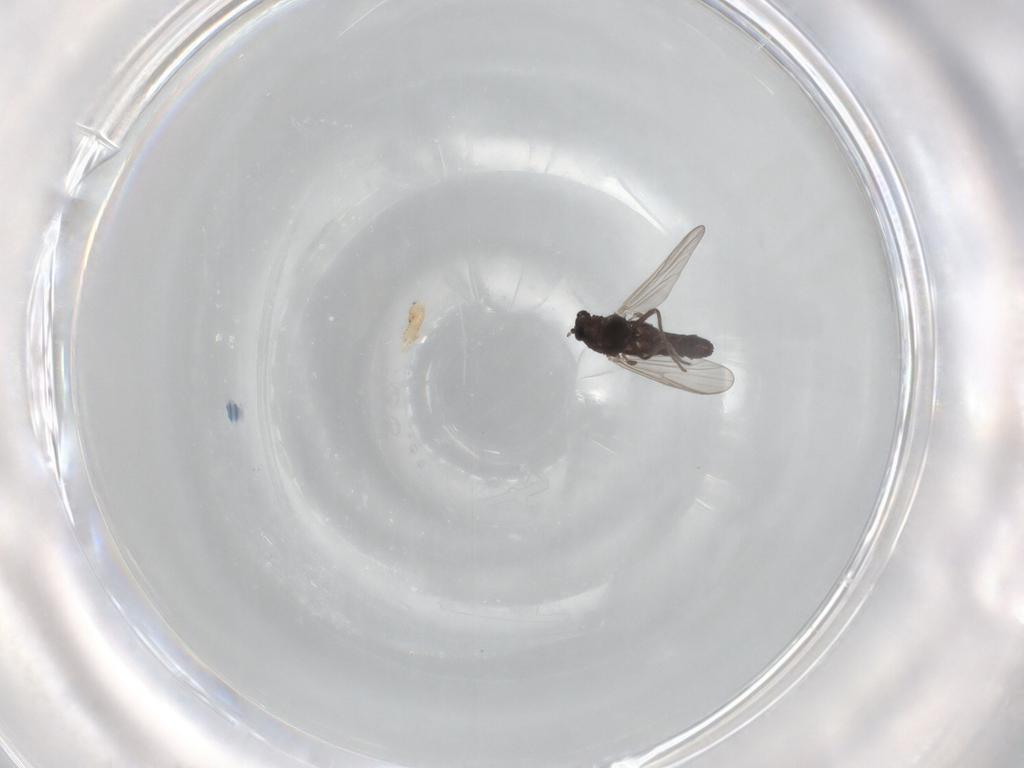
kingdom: Animalia
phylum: Arthropoda
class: Insecta
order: Diptera
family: Chironomidae
